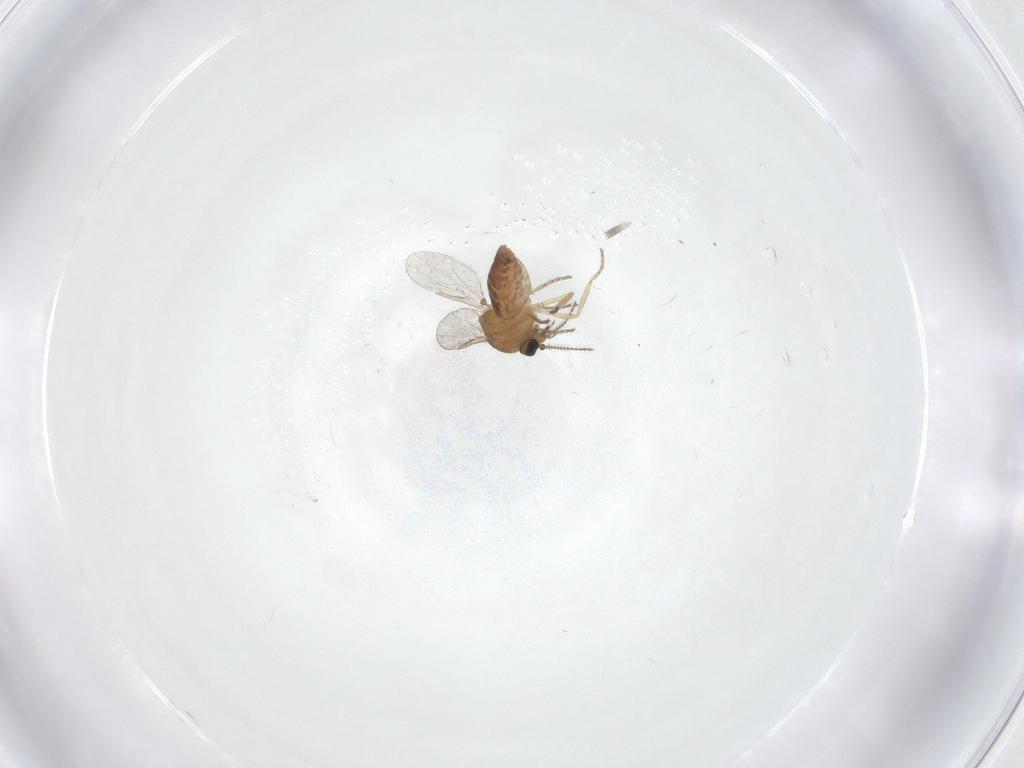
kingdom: Animalia
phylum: Arthropoda
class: Insecta
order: Diptera
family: Ceratopogonidae
